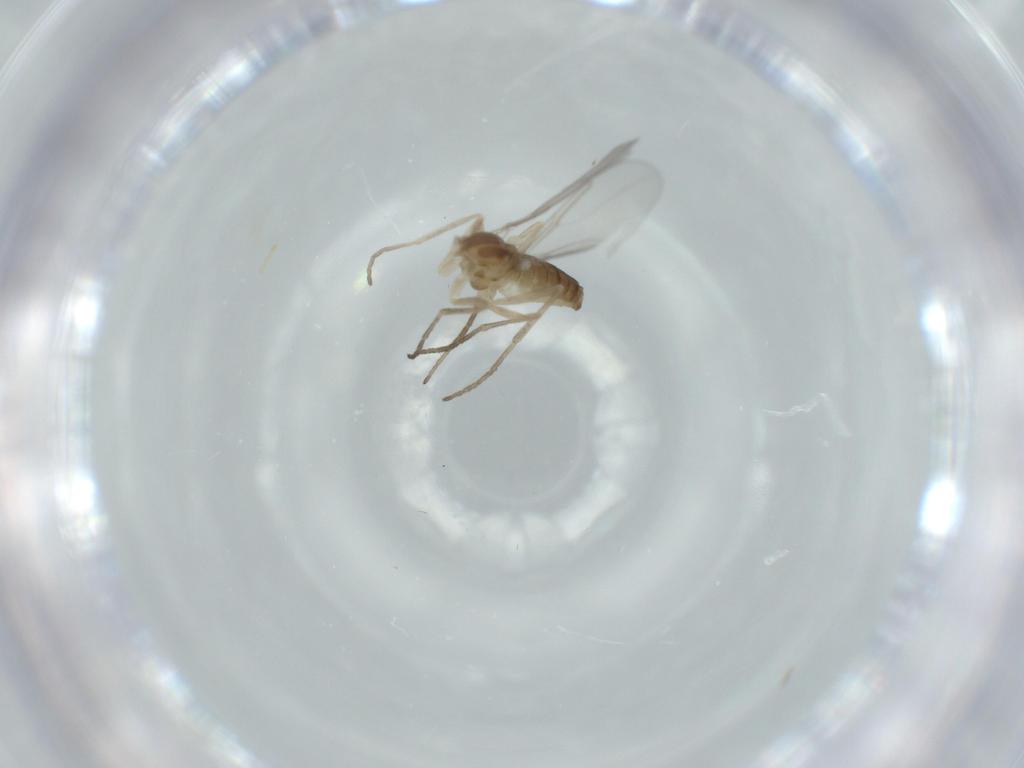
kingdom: Animalia
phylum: Arthropoda
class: Insecta
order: Diptera
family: Cecidomyiidae
